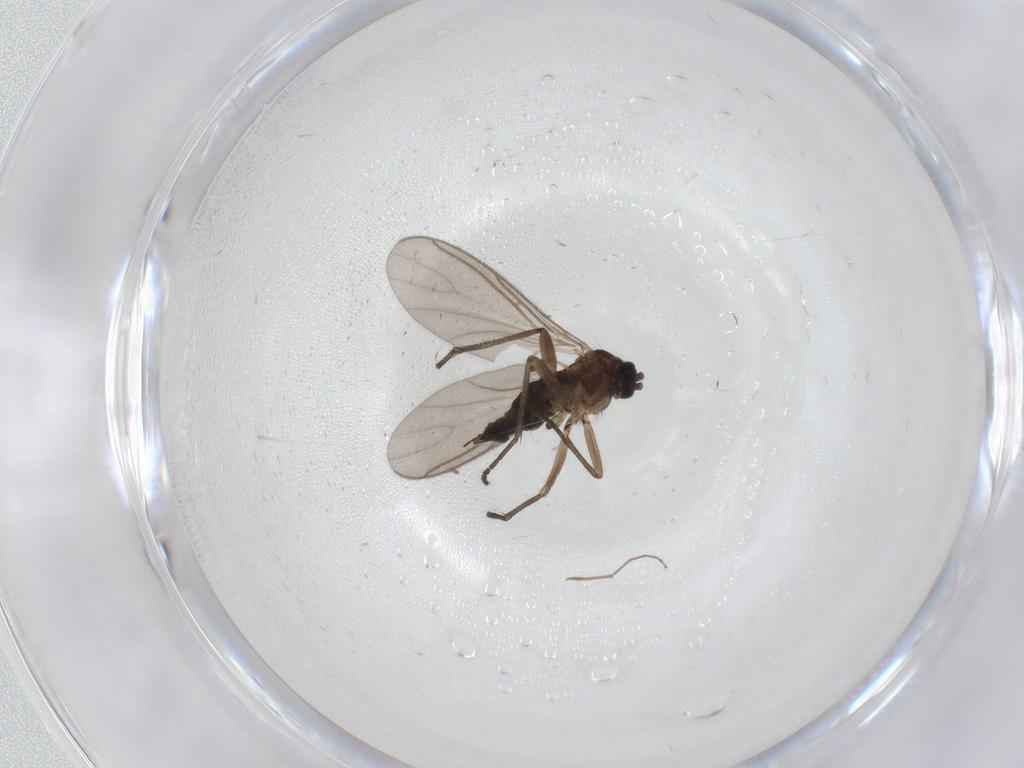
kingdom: Animalia
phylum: Arthropoda
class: Insecta
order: Diptera
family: Sciaridae
